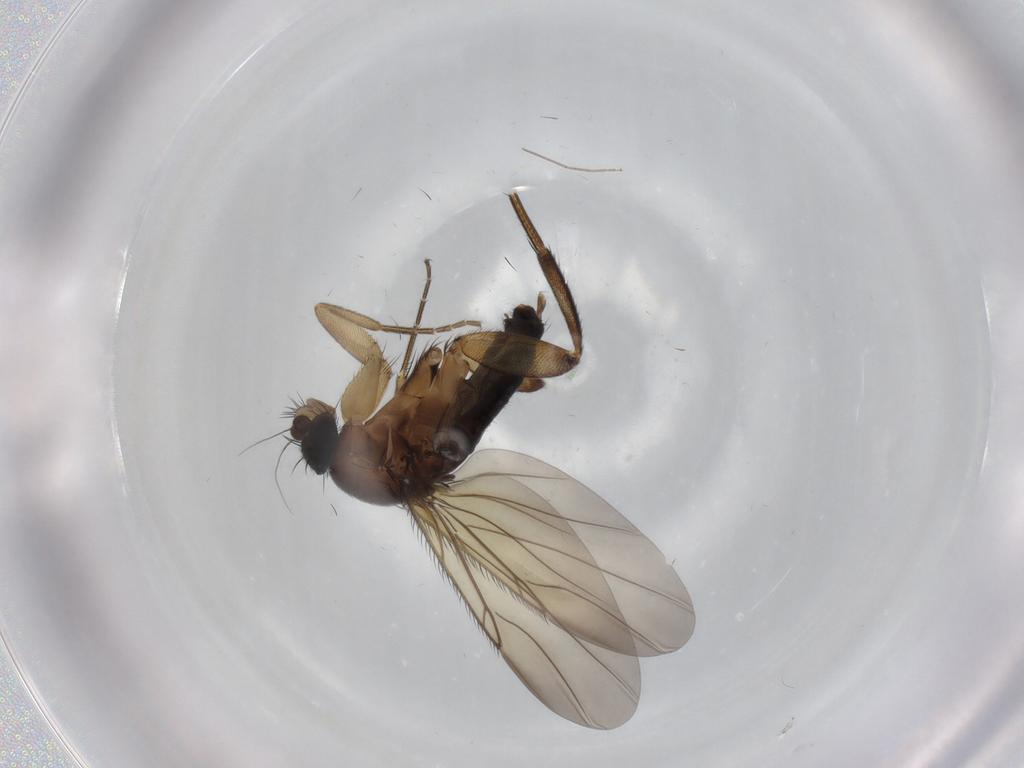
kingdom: Animalia
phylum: Arthropoda
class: Insecta
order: Diptera
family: Phoridae
